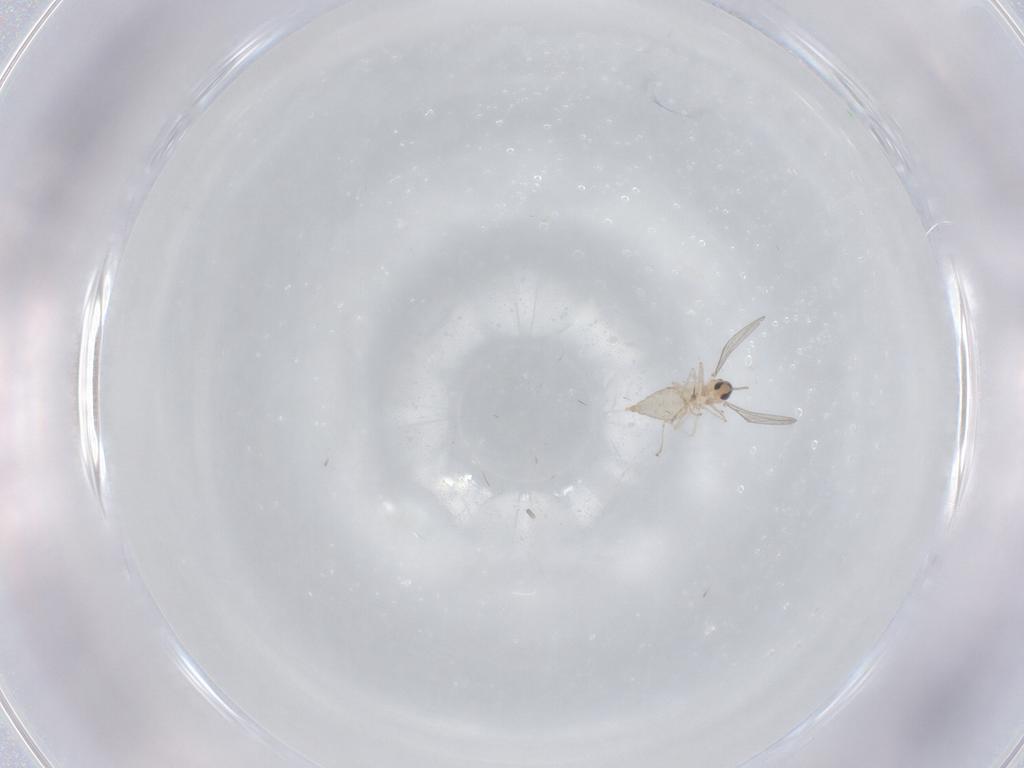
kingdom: Animalia
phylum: Arthropoda
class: Insecta
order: Diptera
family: Cecidomyiidae
